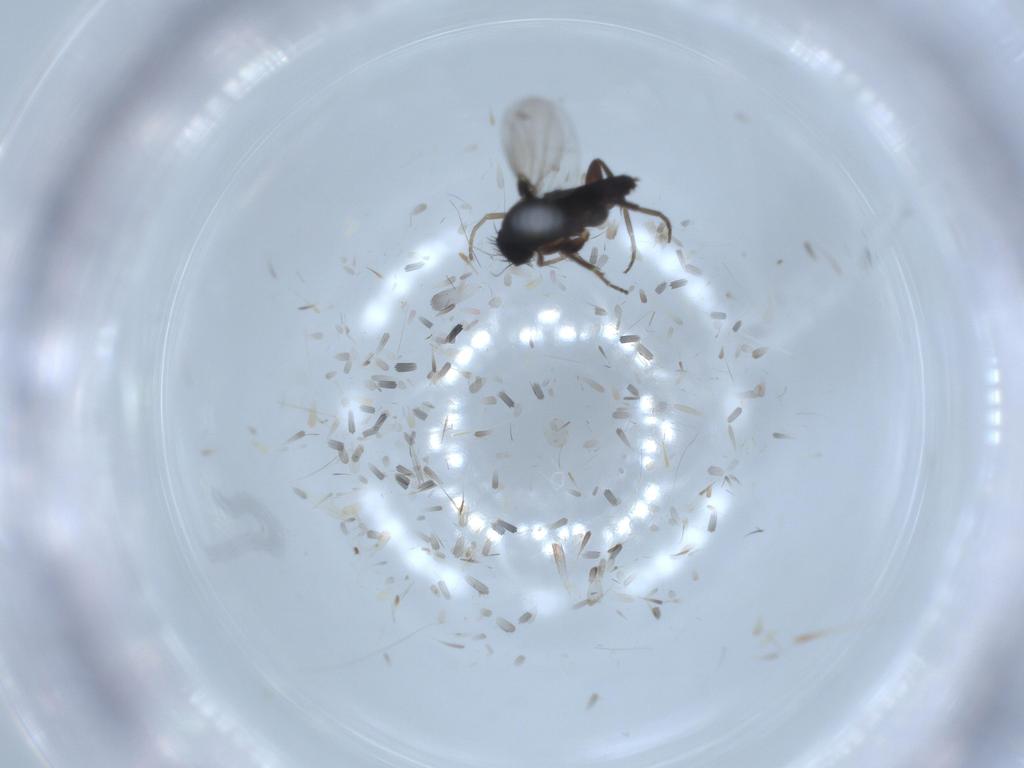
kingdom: Animalia
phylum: Arthropoda
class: Insecta
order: Diptera
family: Phoridae
